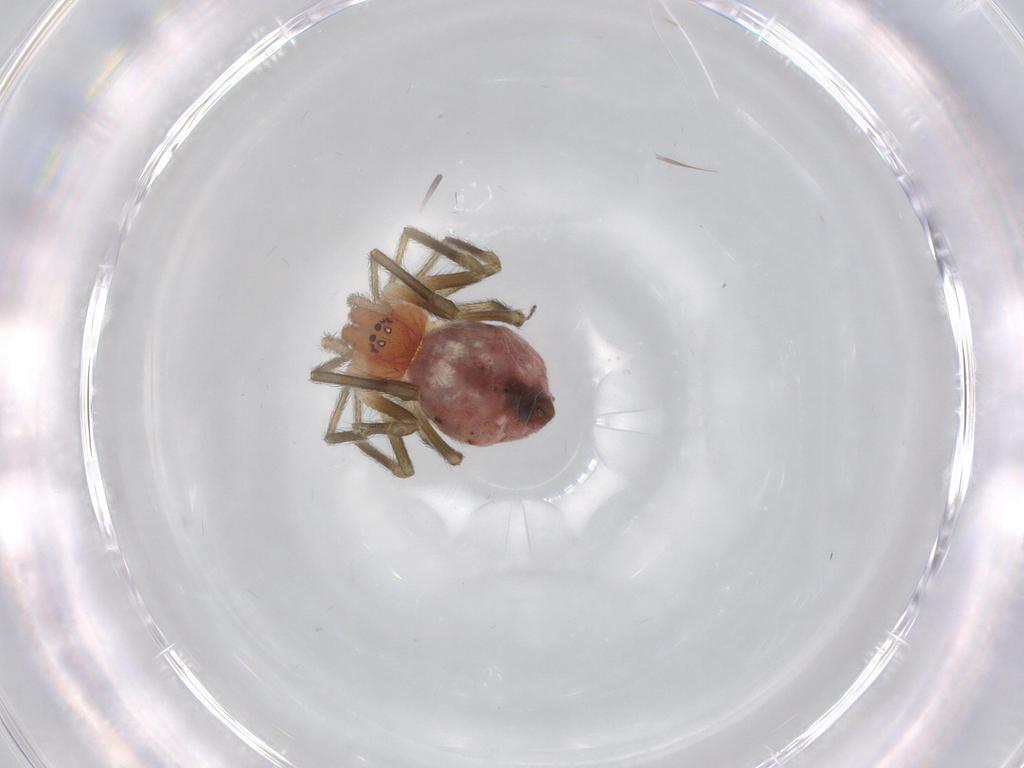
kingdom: Animalia
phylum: Arthropoda
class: Arachnida
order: Araneae
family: Dictynidae
